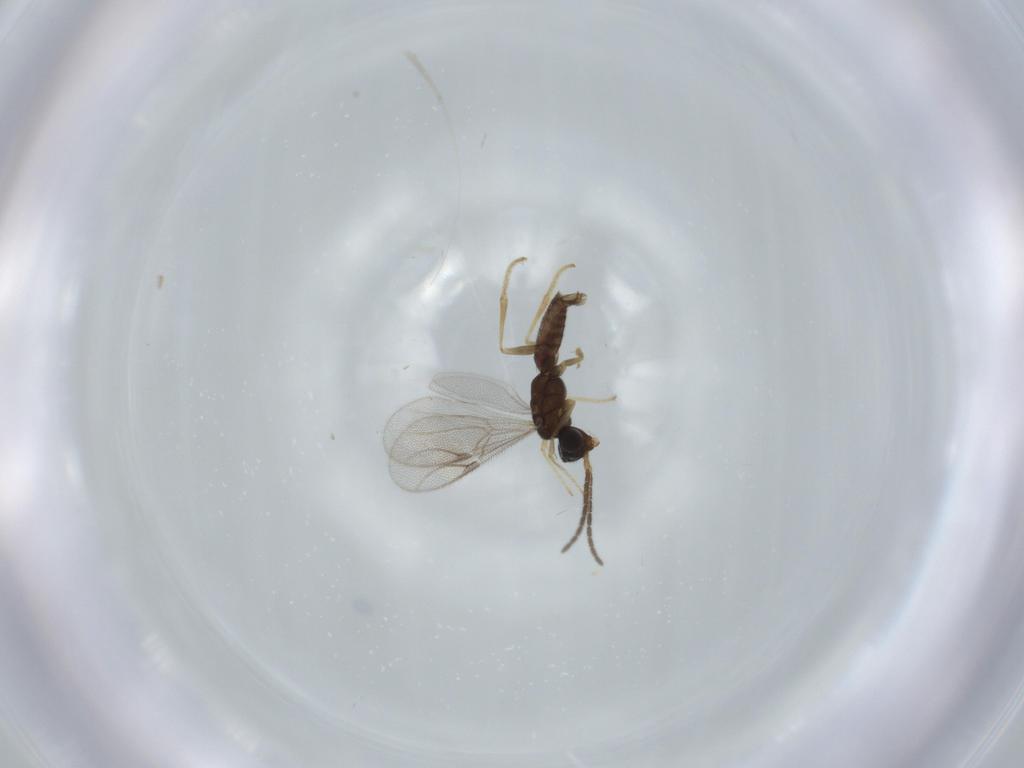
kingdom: Animalia
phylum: Arthropoda
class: Insecta
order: Hymenoptera
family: Dryinidae
